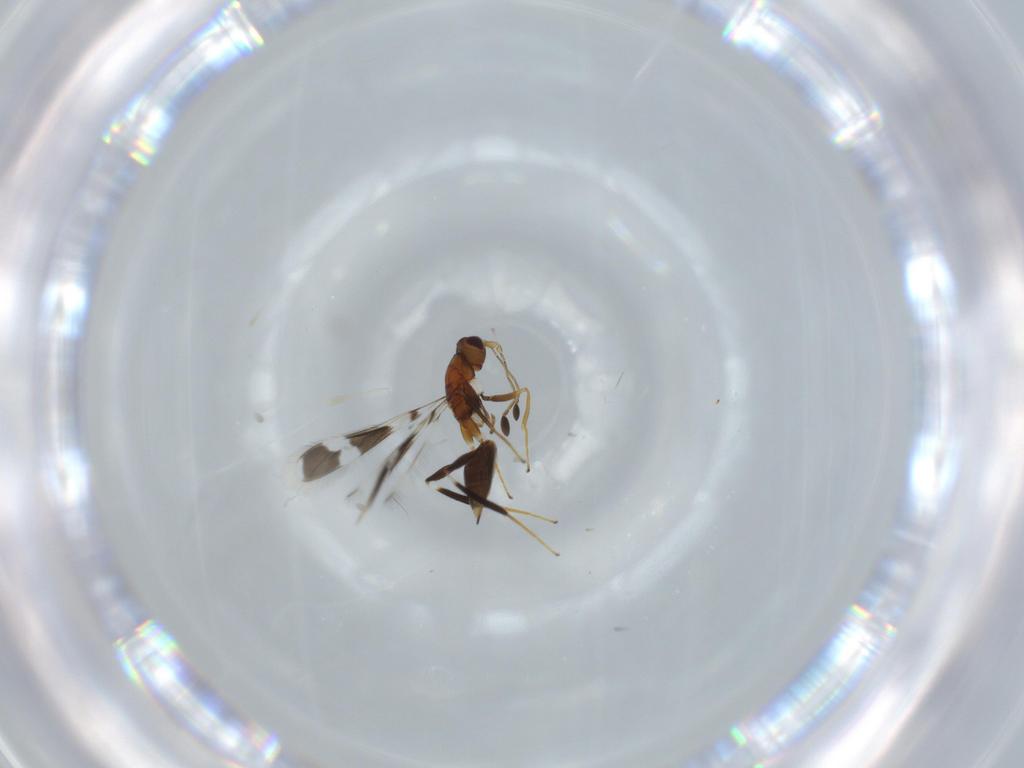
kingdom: Animalia
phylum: Arthropoda
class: Insecta
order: Hymenoptera
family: Mymaridae
